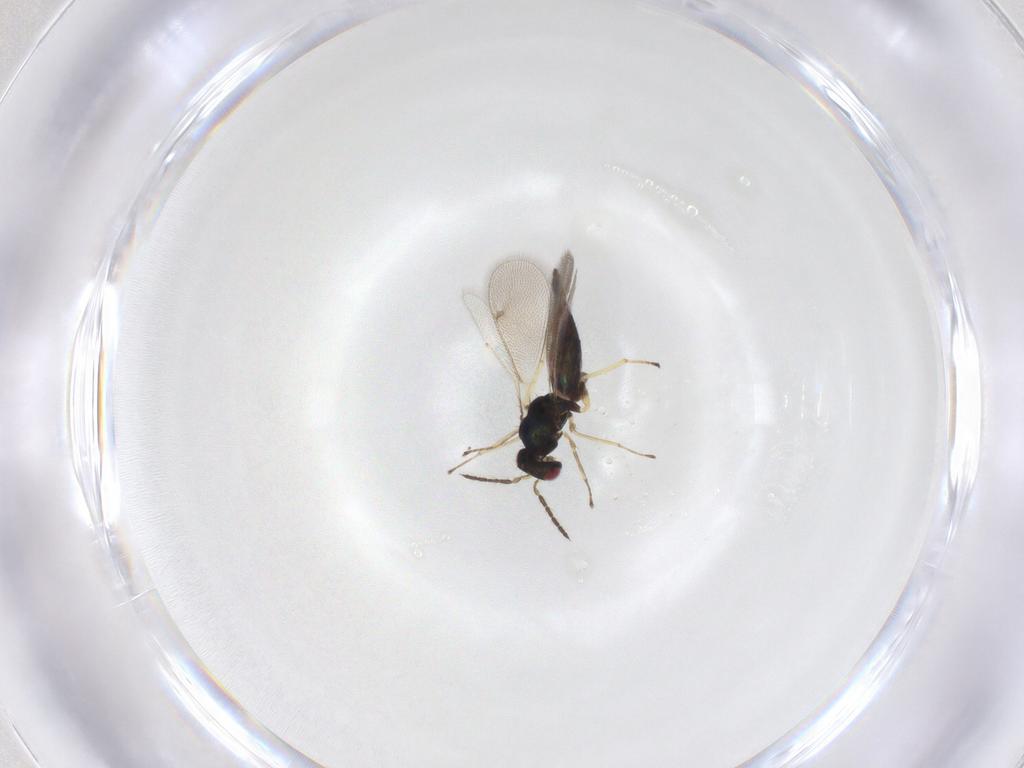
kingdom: Animalia
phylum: Arthropoda
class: Insecta
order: Hymenoptera
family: Eulophidae
